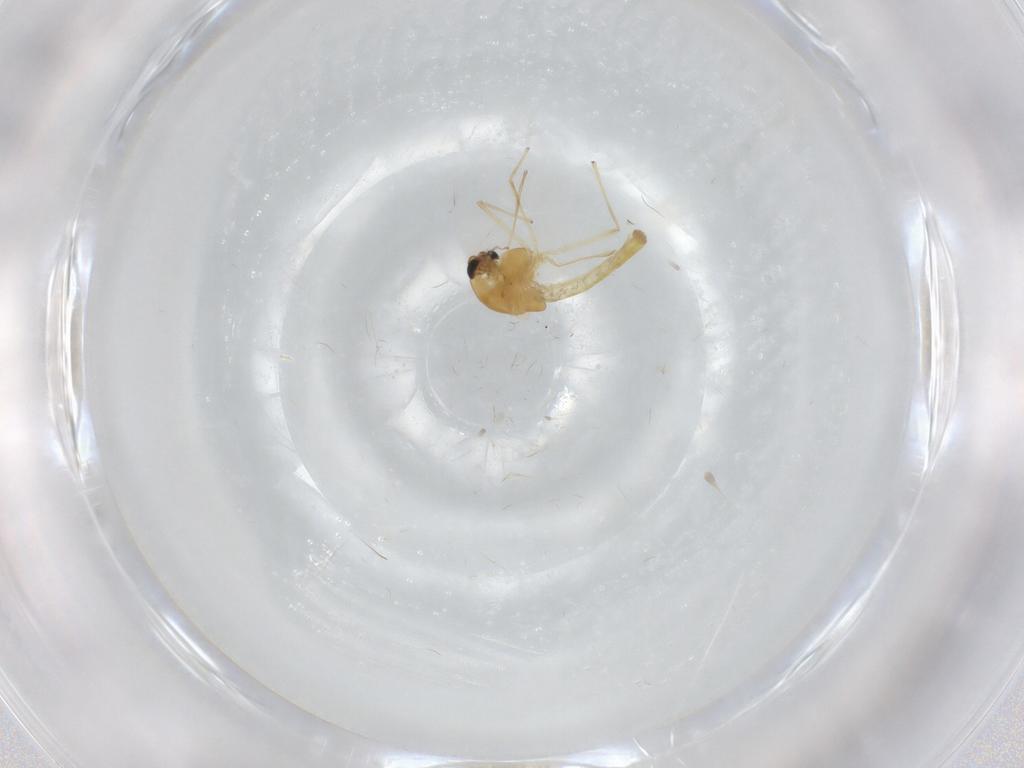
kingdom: Animalia
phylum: Arthropoda
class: Insecta
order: Diptera
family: Chironomidae
